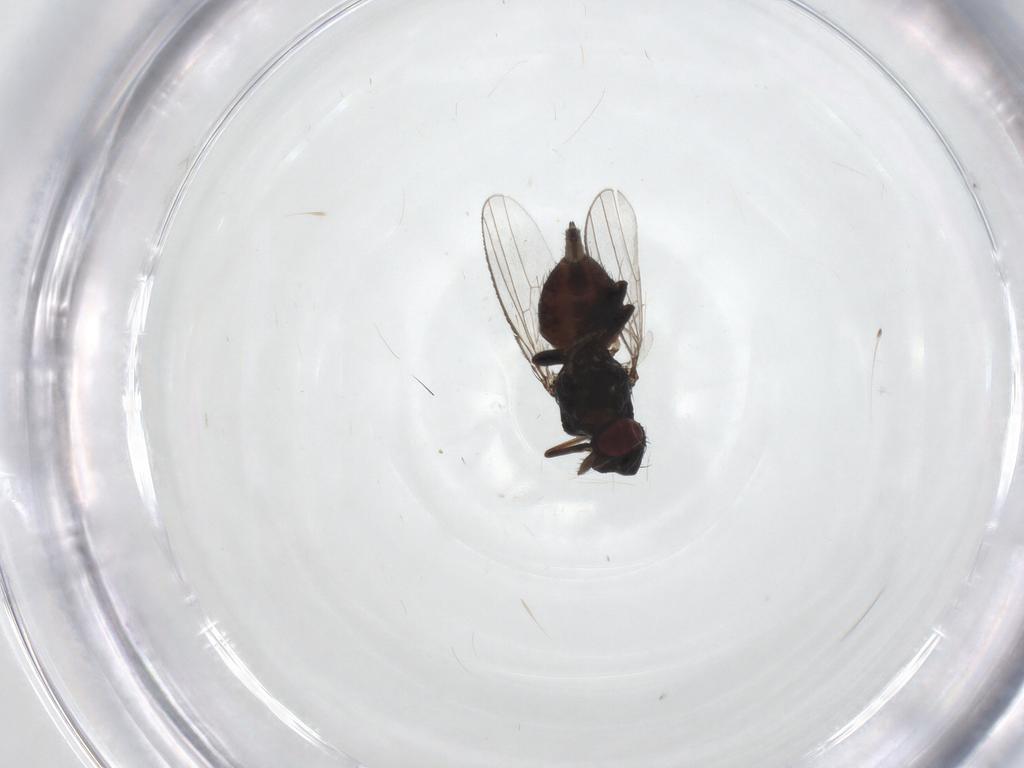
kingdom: Animalia
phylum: Arthropoda
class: Insecta
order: Diptera
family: Milichiidae
